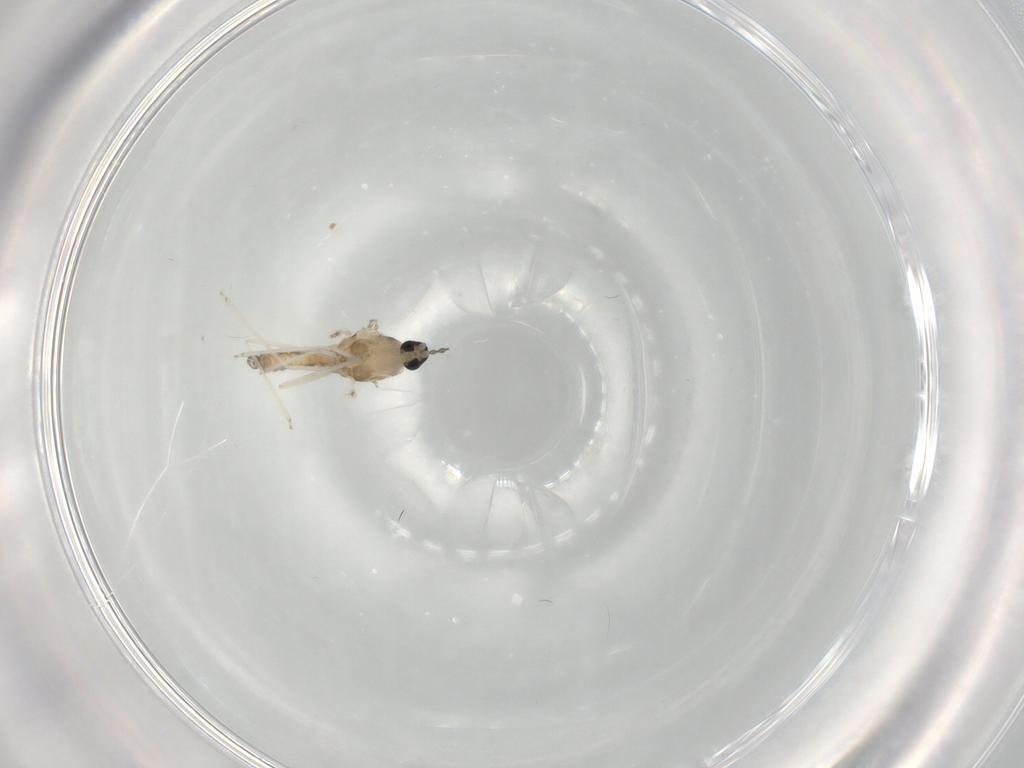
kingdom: Animalia
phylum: Arthropoda
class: Insecta
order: Diptera
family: Cecidomyiidae
